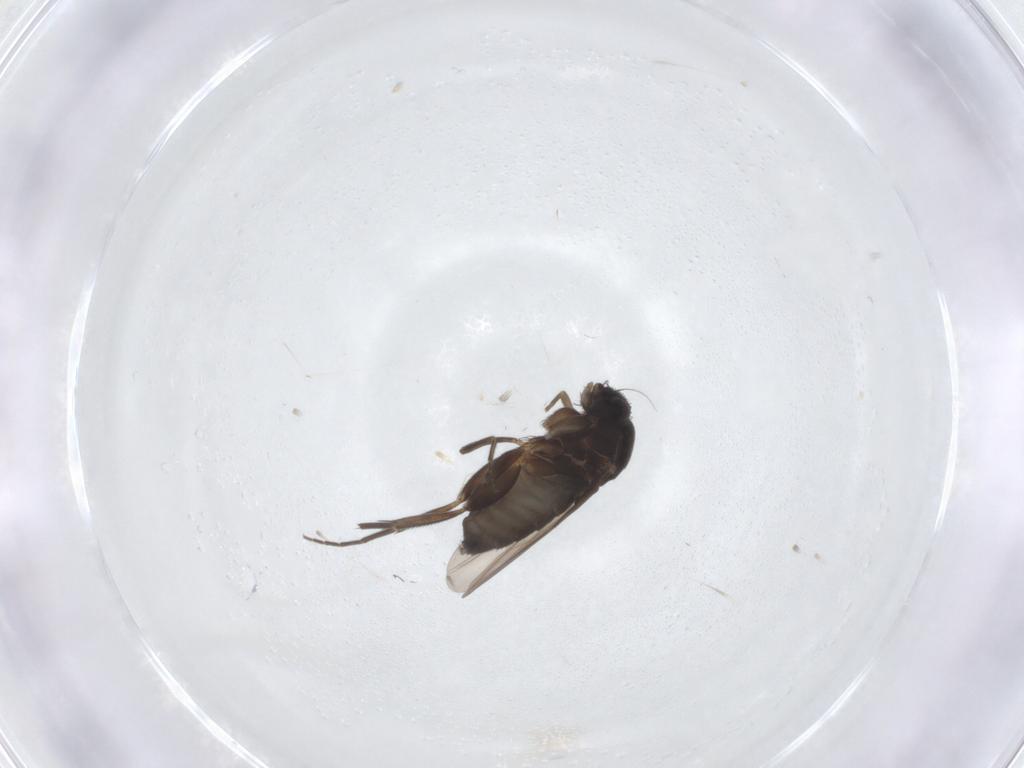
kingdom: Animalia
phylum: Arthropoda
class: Insecta
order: Diptera
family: Phoridae
